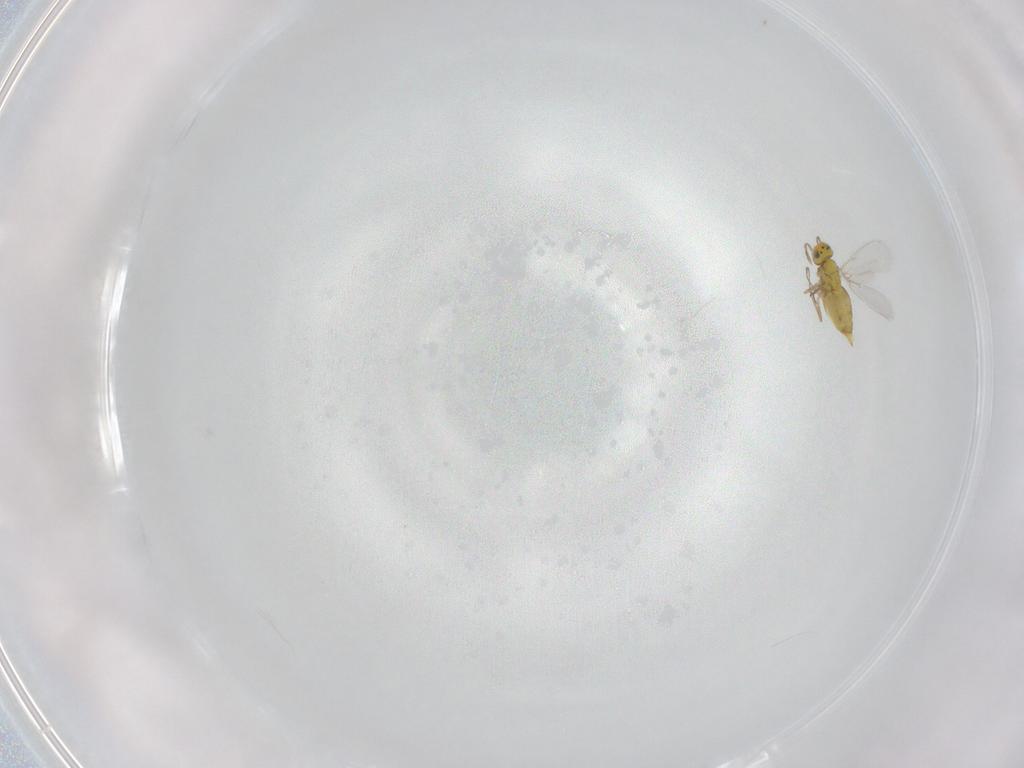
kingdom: Animalia
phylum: Arthropoda
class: Insecta
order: Hymenoptera
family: Aphelinidae
